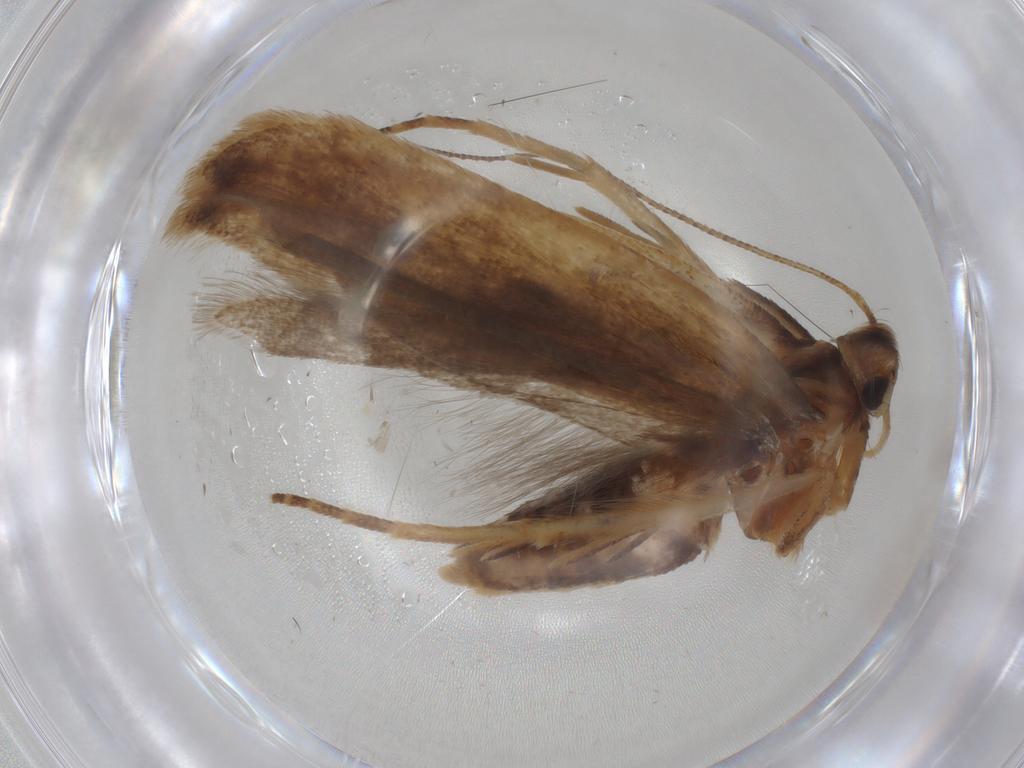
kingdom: Animalia
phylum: Arthropoda
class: Insecta
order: Lepidoptera
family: Gelechiidae
